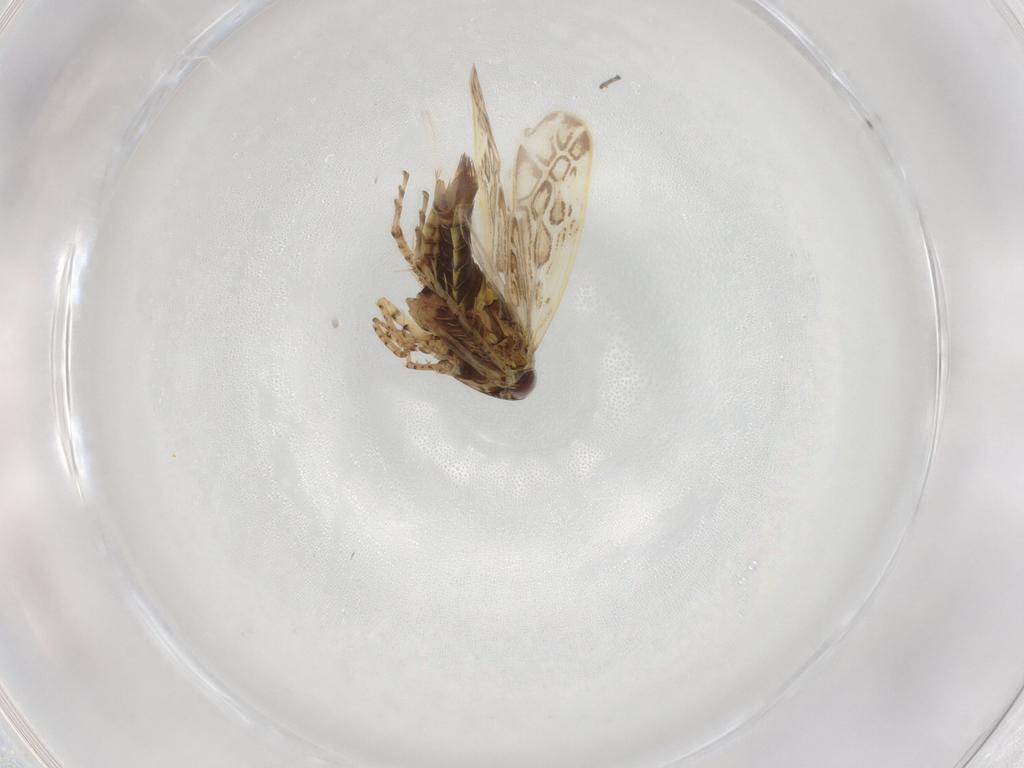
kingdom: Animalia
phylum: Arthropoda
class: Insecta
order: Hemiptera
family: Cicadellidae
